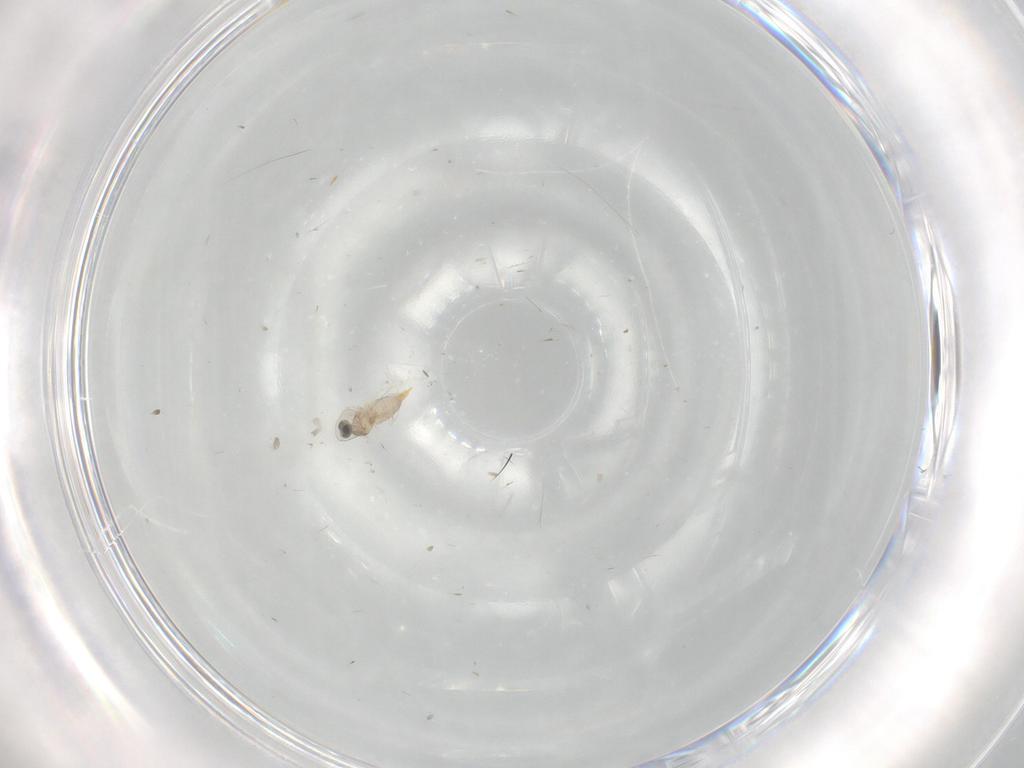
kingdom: Animalia
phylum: Arthropoda
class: Insecta
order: Diptera
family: Cecidomyiidae
